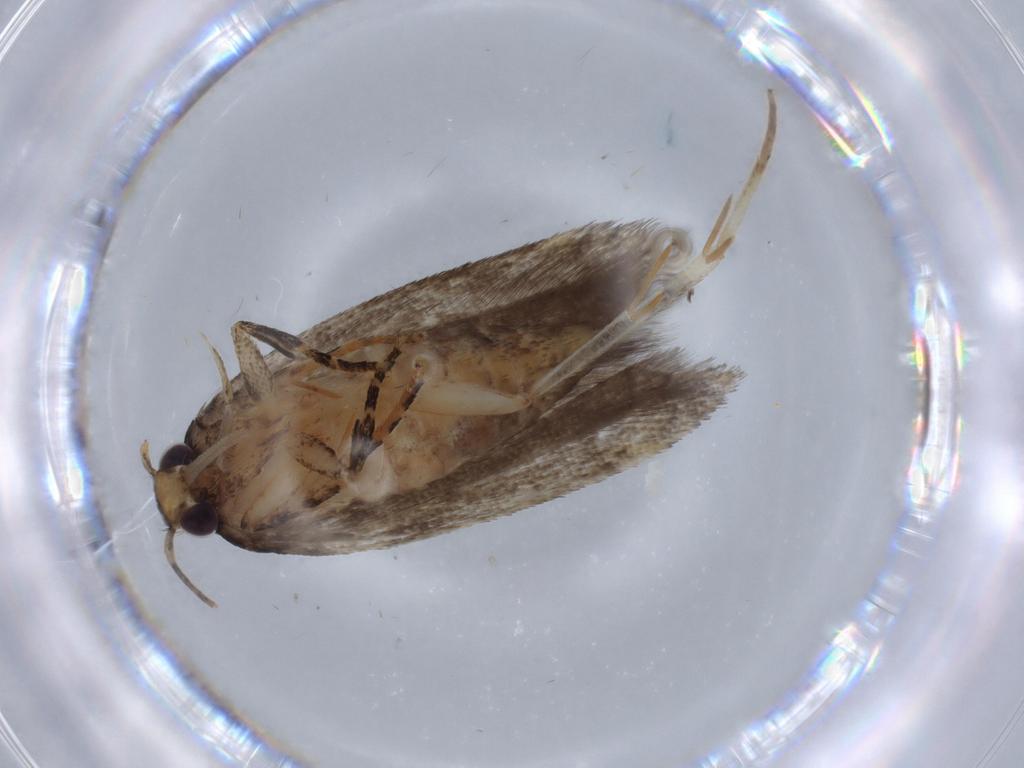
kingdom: Animalia
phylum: Arthropoda
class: Insecta
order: Lepidoptera
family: Tineidae
